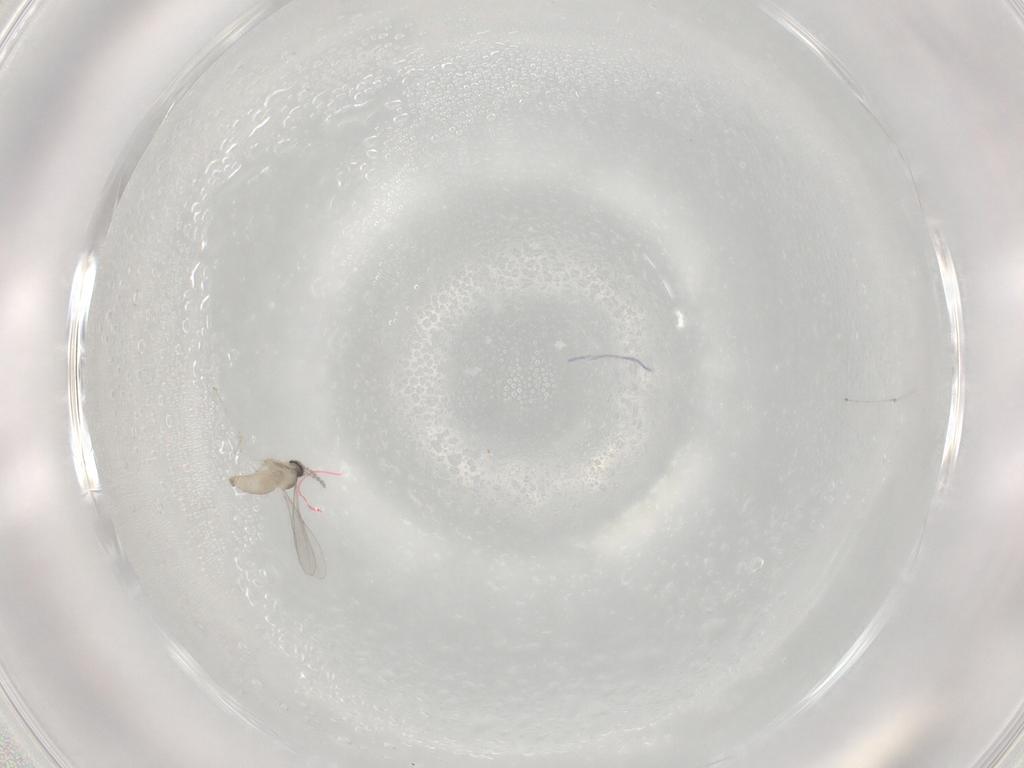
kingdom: Animalia
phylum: Arthropoda
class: Insecta
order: Diptera
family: Cecidomyiidae
